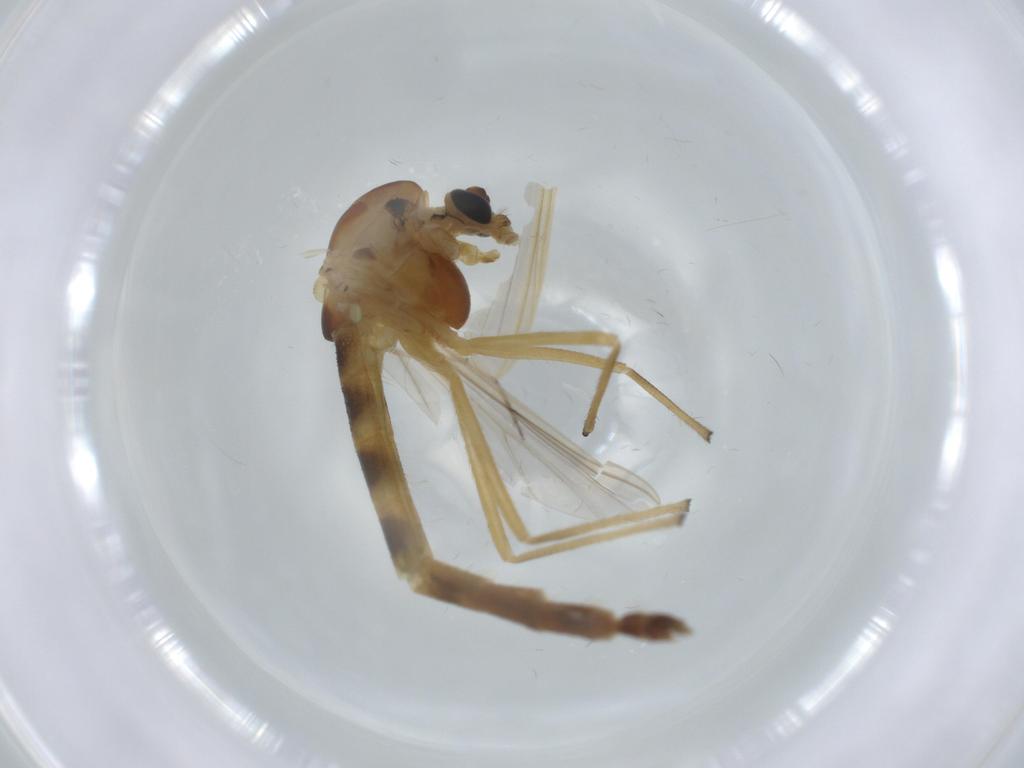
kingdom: Animalia
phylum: Arthropoda
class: Insecta
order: Diptera
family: Chironomidae
